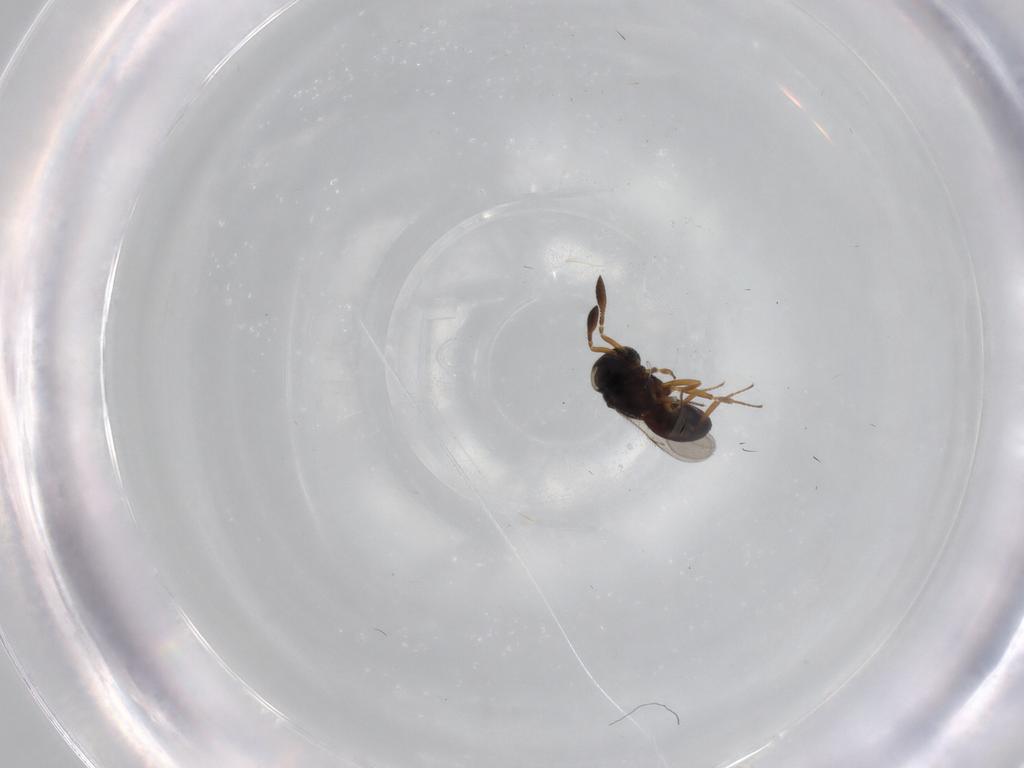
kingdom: Animalia
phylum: Arthropoda
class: Insecta
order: Hymenoptera
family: Scelionidae
